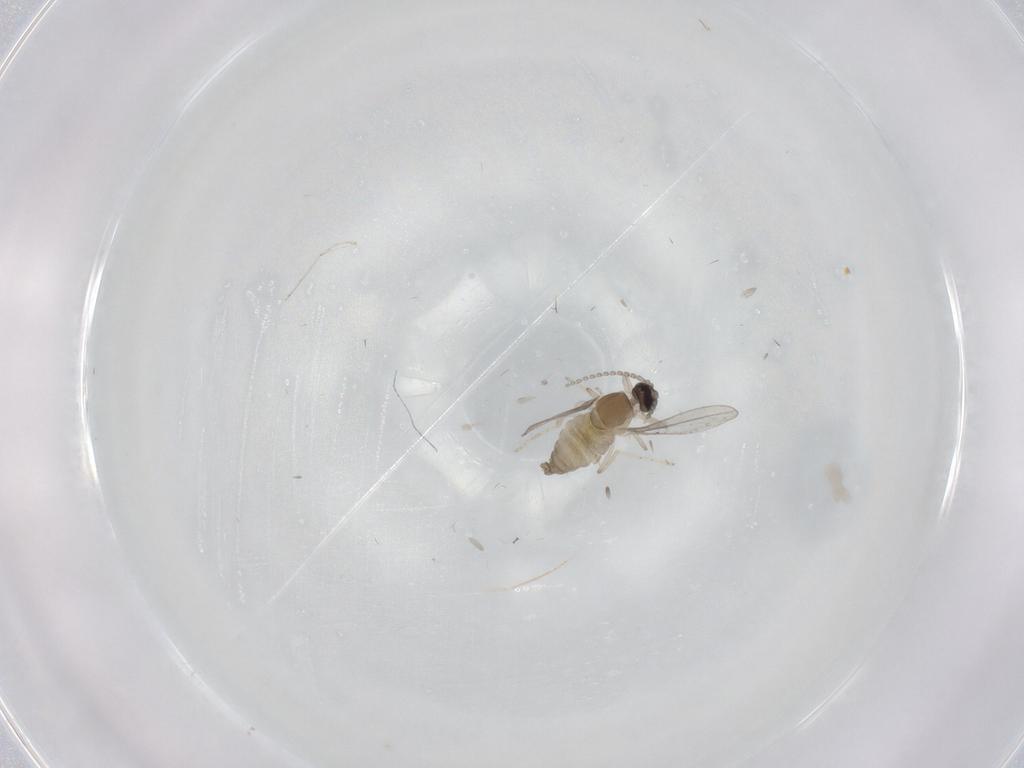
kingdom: Animalia
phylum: Arthropoda
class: Insecta
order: Diptera
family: Cecidomyiidae
